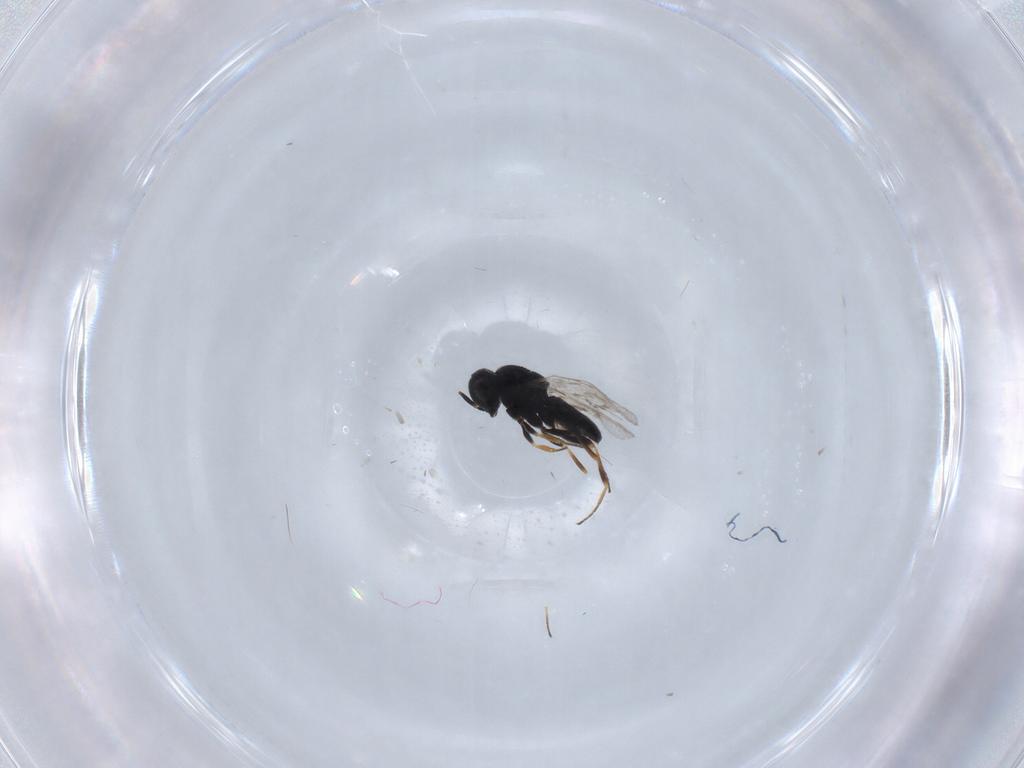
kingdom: Animalia
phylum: Arthropoda
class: Insecta
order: Hymenoptera
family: Scelionidae
